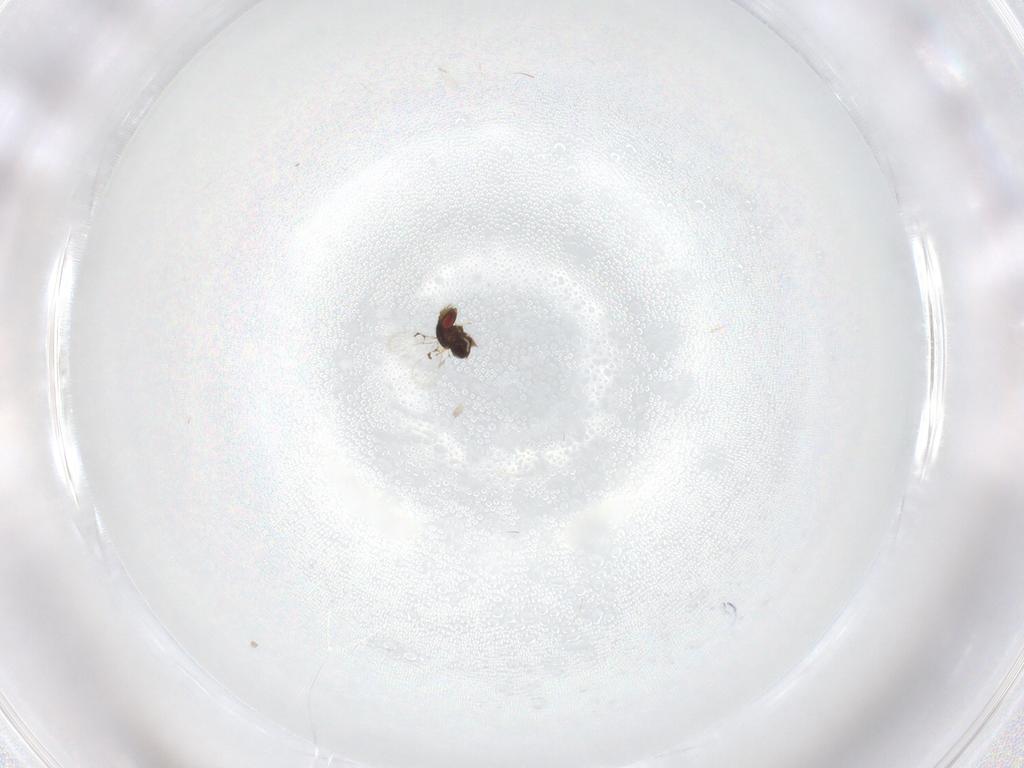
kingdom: Animalia
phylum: Arthropoda
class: Insecta
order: Hymenoptera
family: Trichogrammatidae
